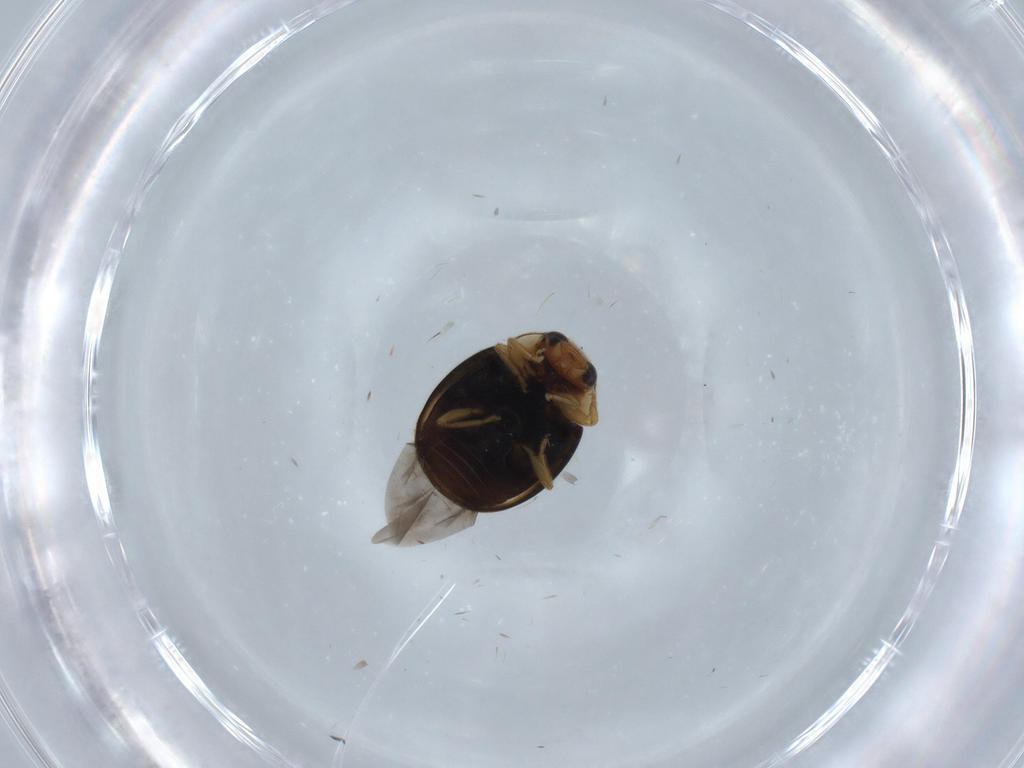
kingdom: Animalia
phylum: Arthropoda
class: Insecta
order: Coleoptera
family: Coccinellidae
